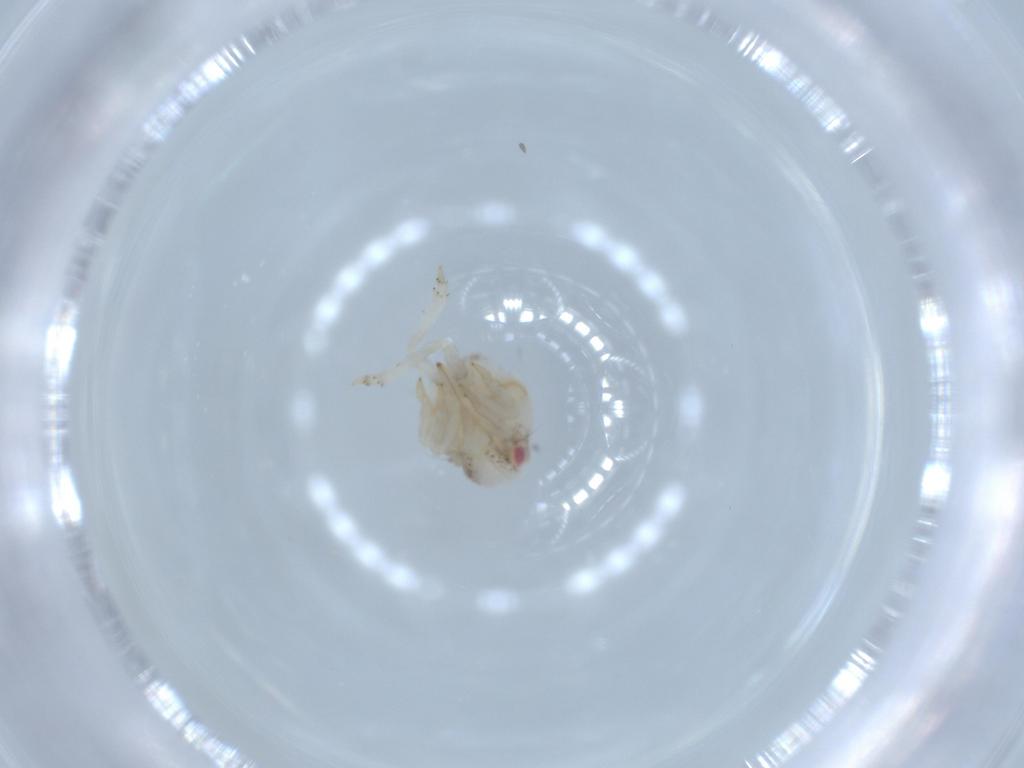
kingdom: Animalia
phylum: Arthropoda
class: Insecta
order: Hemiptera
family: Acanaloniidae
